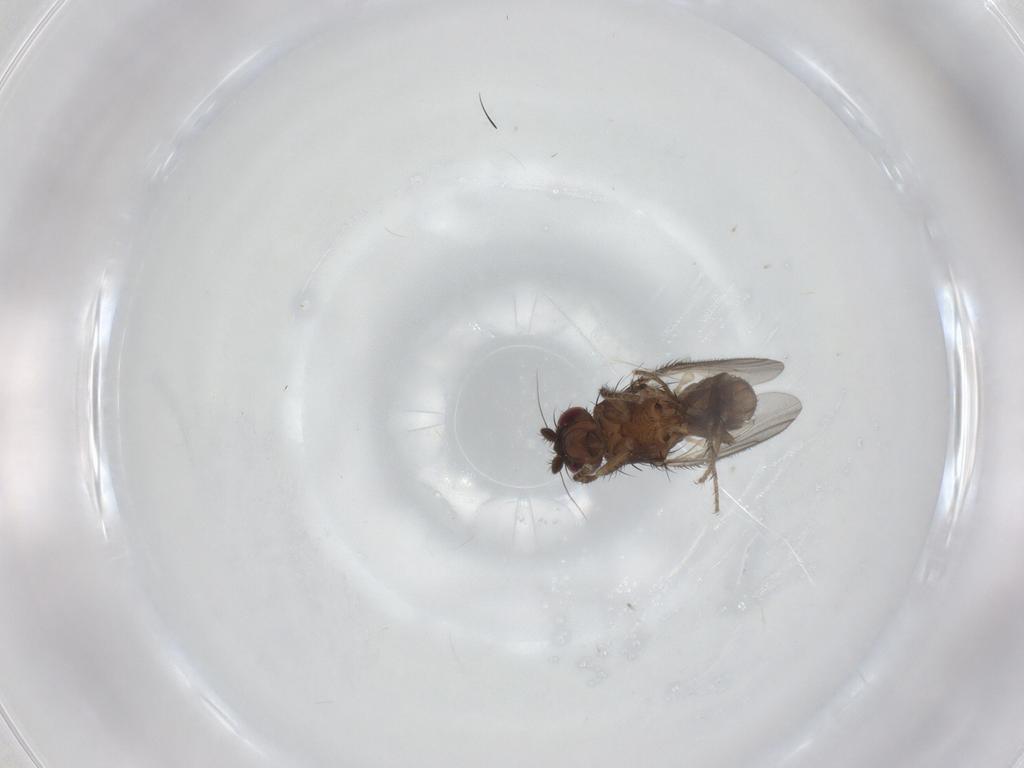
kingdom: Animalia
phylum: Arthropoda
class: Insecta
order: Diptera
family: Sphaeroceridae
